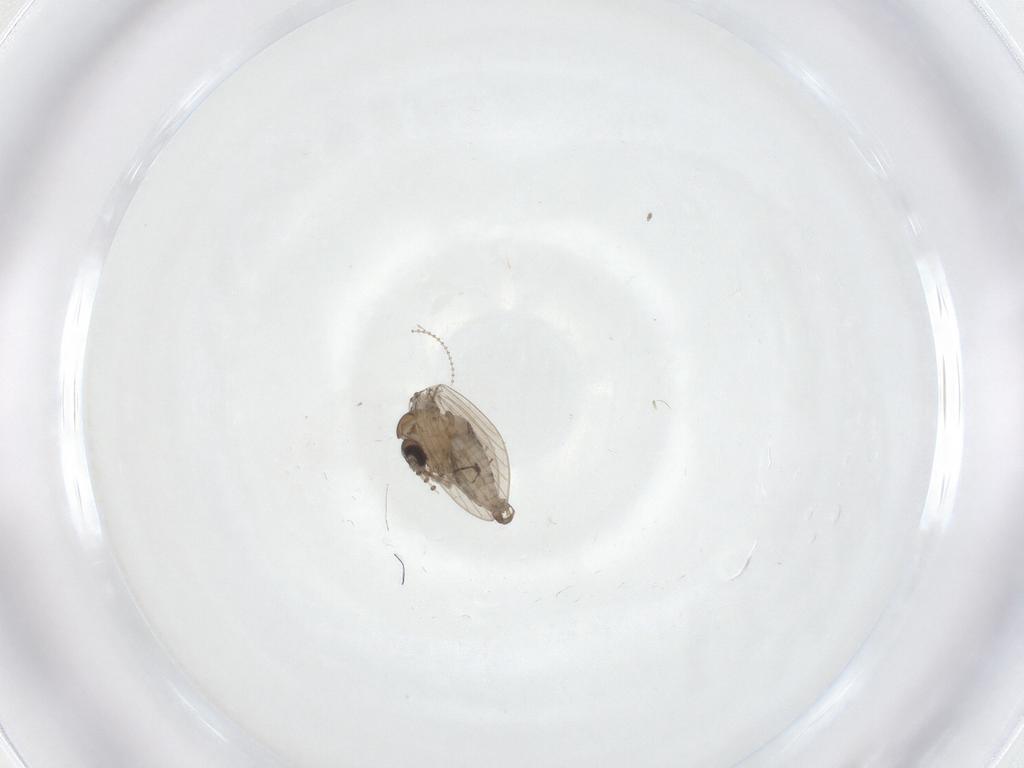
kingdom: Animalia
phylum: Arthropoda
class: Insecta
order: Diptera
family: Psychodidae
